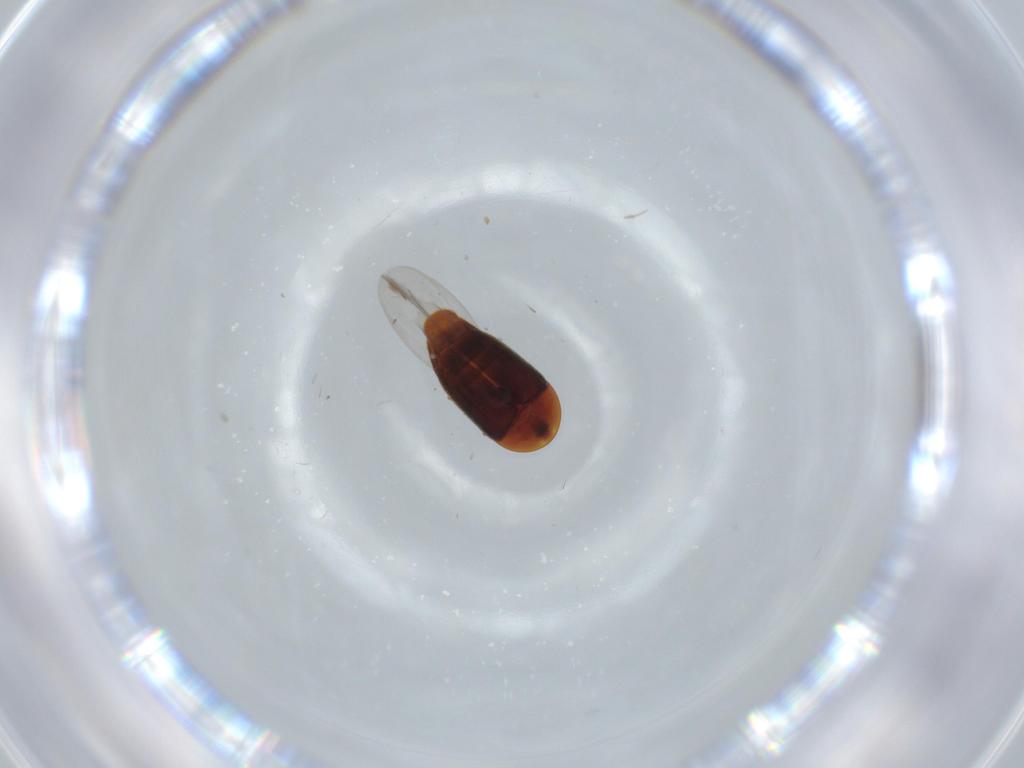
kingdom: Animalia
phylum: Arthropoda
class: Insecta
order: Coleoptera
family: Corylophidae
